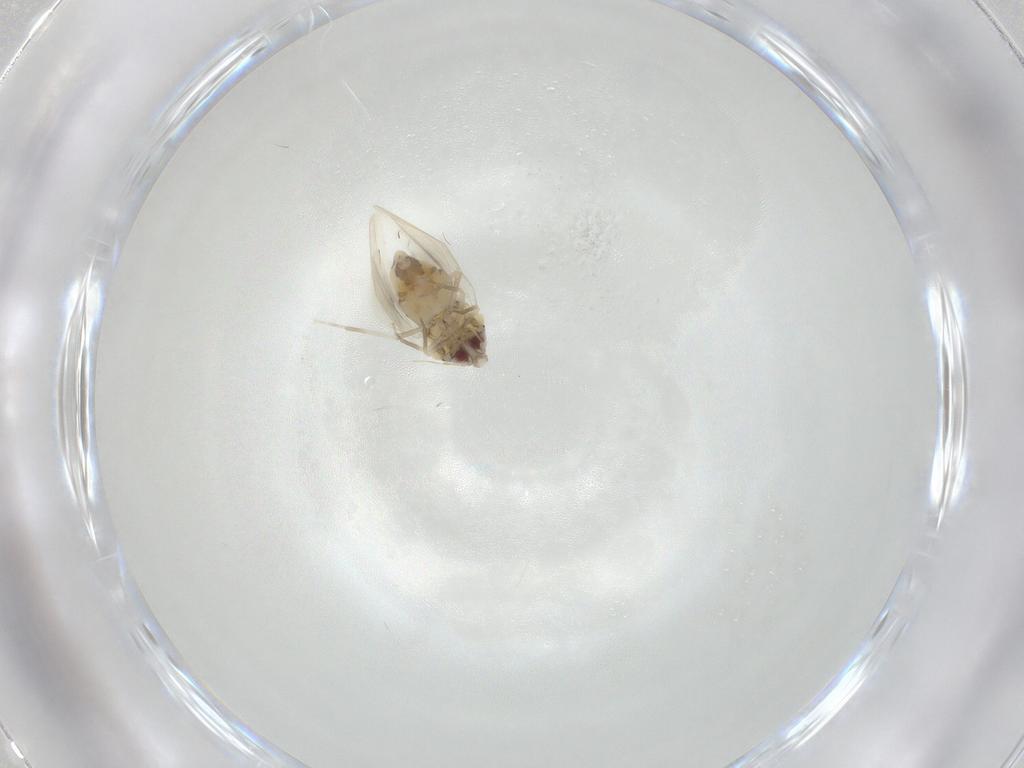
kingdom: Animalia
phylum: Arthropoda
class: Insecta
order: Hemiptera
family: Aleyrodidae
